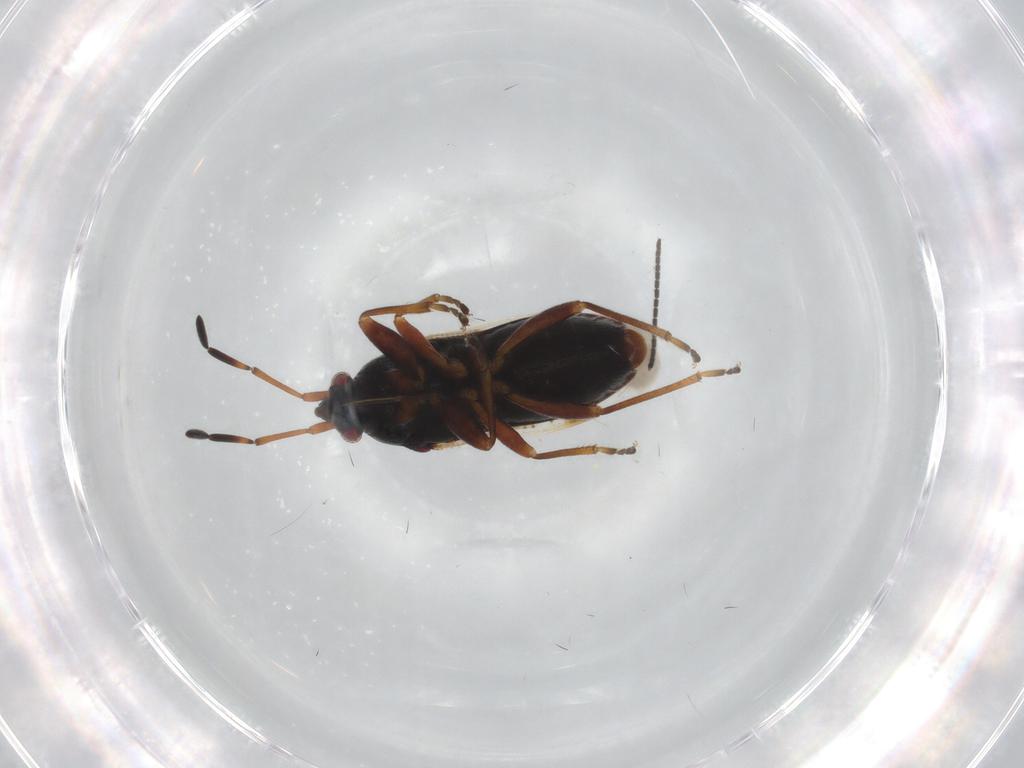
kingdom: Animalia
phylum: Arthropoda
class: Insecta
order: Hemiptera
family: Rhyparochromidae
